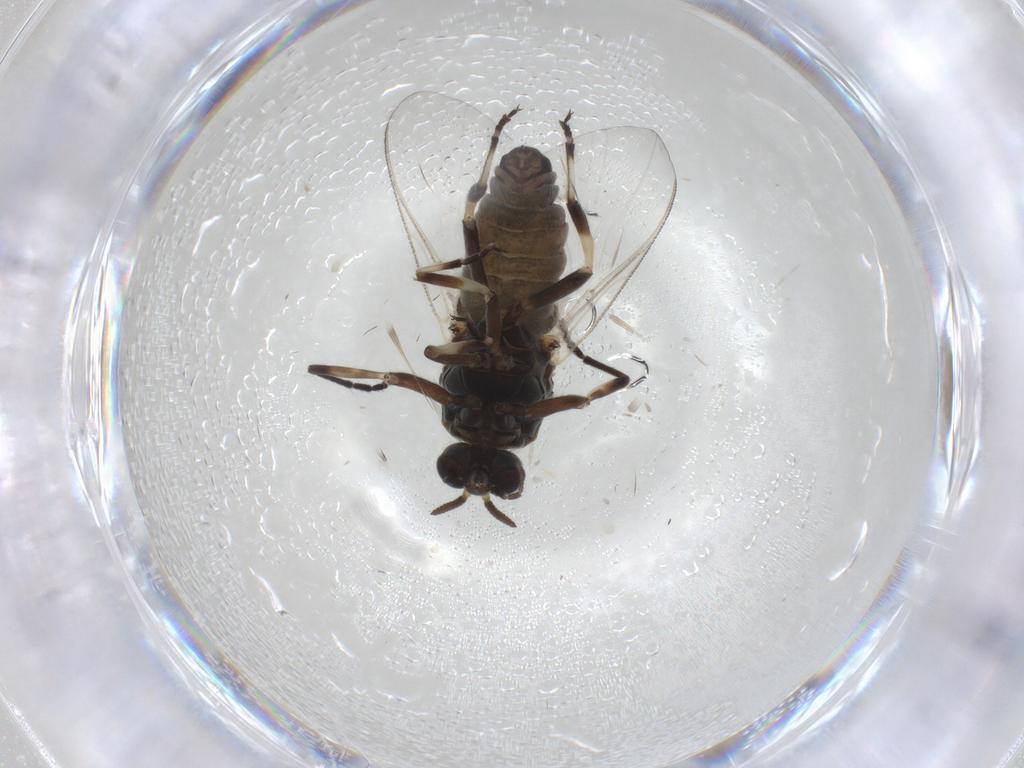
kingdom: Animalia
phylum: Arthropoda
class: Insecta
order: Diptera
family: Simuliidae
